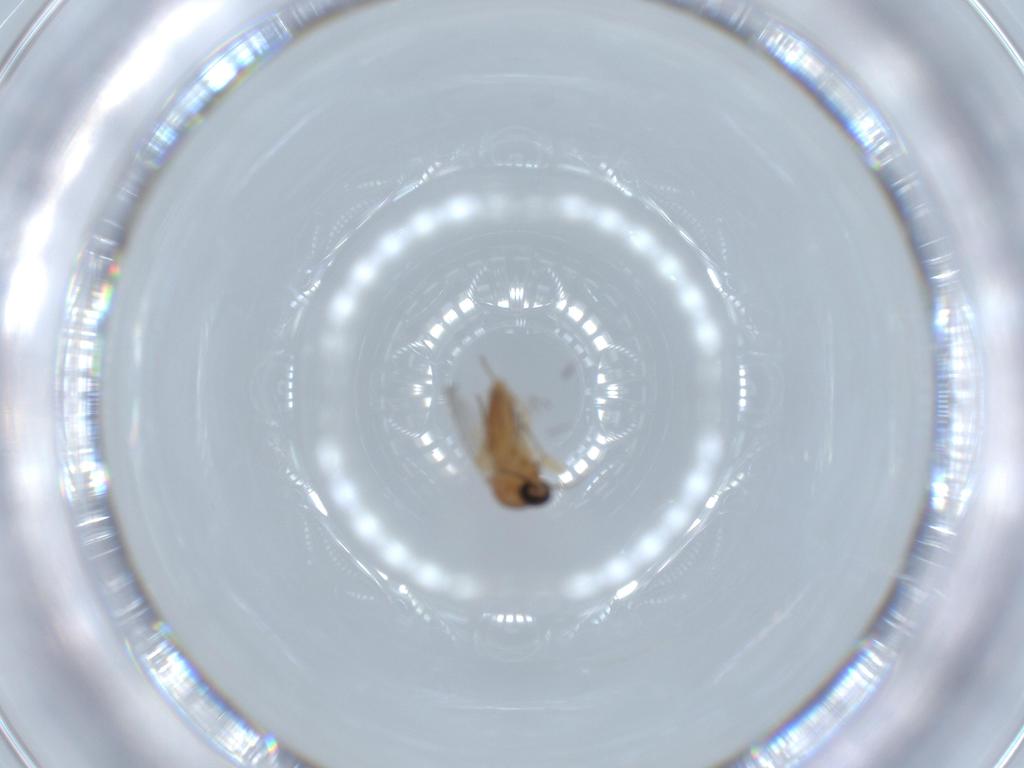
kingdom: Animalia
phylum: Arthropoda
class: Insecta
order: Diptera
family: Ceratopogonidae
